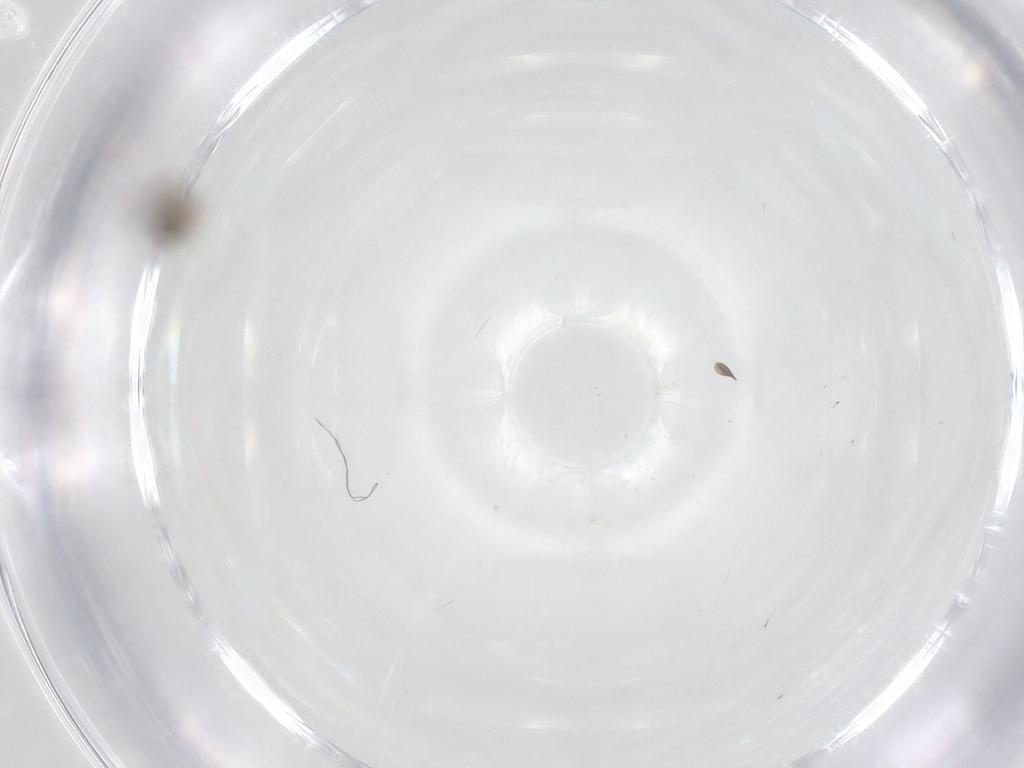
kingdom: Animalia
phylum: Arthropoda
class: Insecta
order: Diptera
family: Psychodidae
